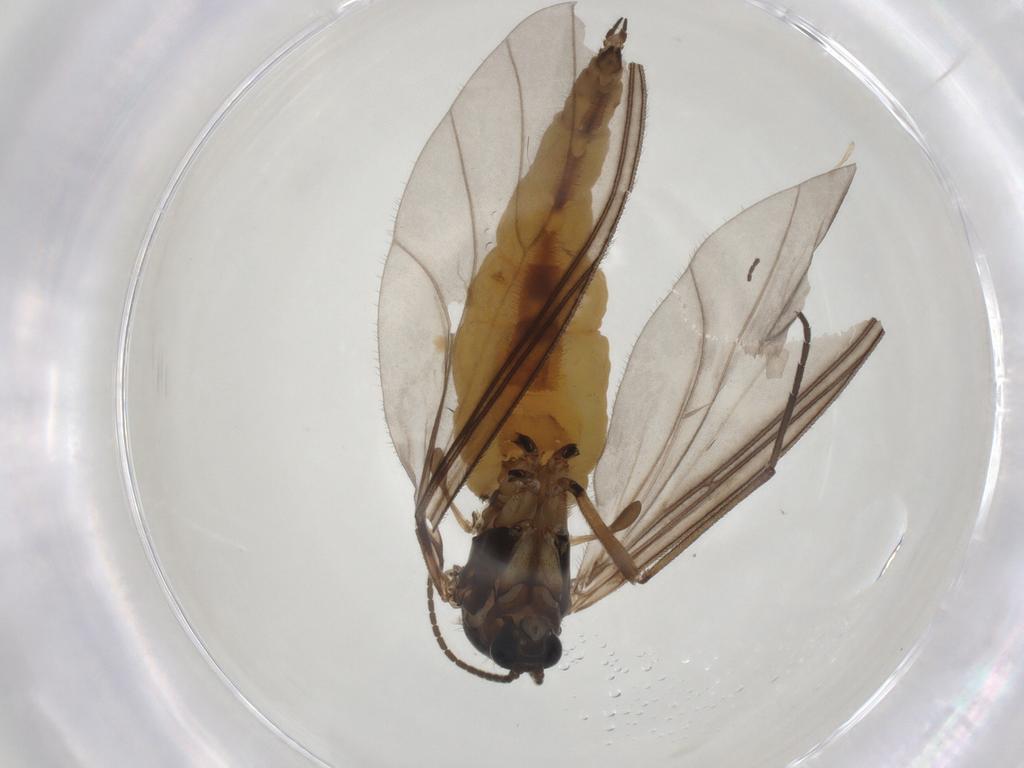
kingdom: Animalia
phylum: Arthropoda
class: Insecta
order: Diptera
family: Sciaridae
